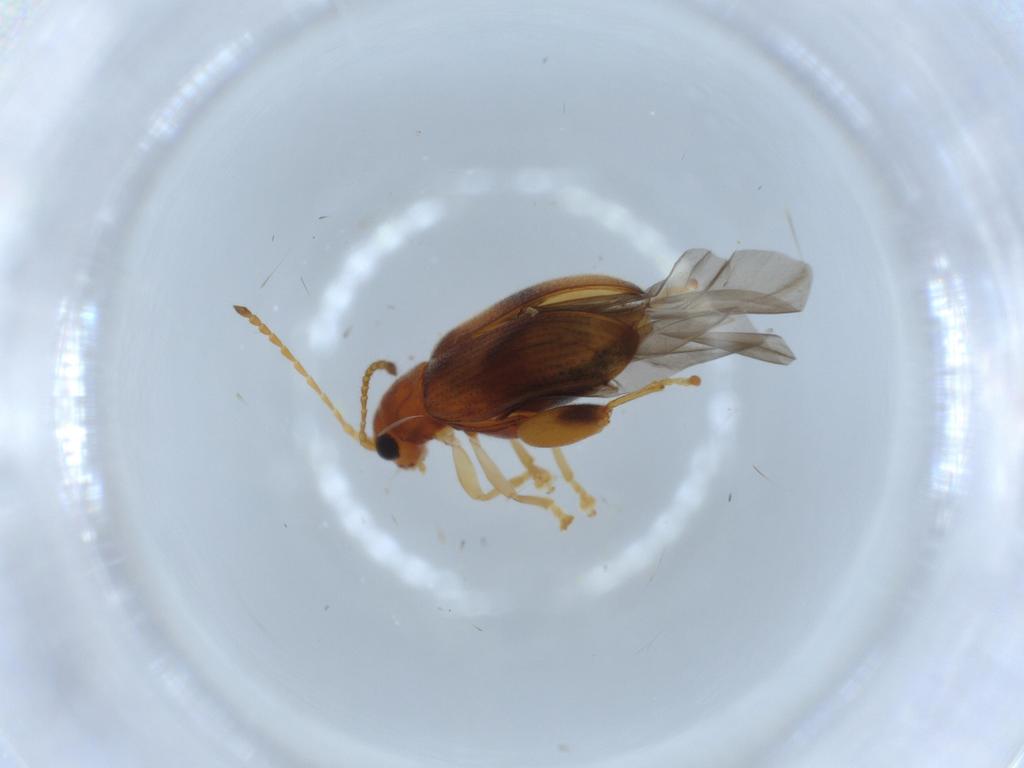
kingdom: Animalia
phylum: Arthropoda
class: Insecta
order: Coleoptera
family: Chrysomelidae
